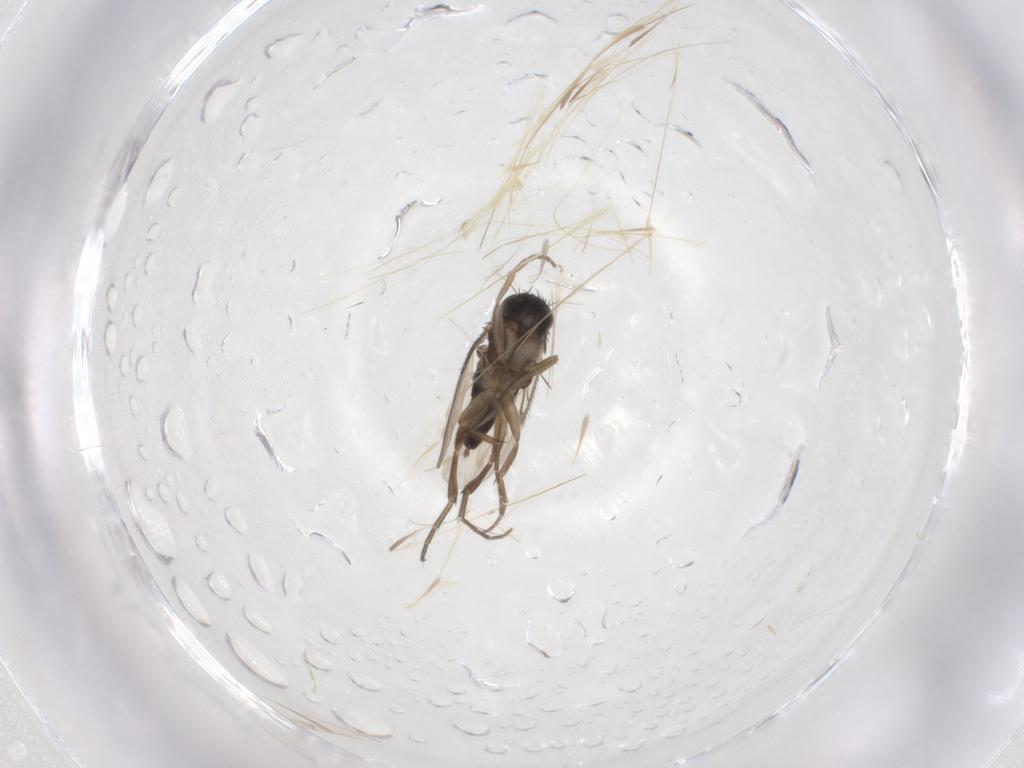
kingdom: Animalia
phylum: Arthropoda
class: Insecta
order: Diptera
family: Phoridae
